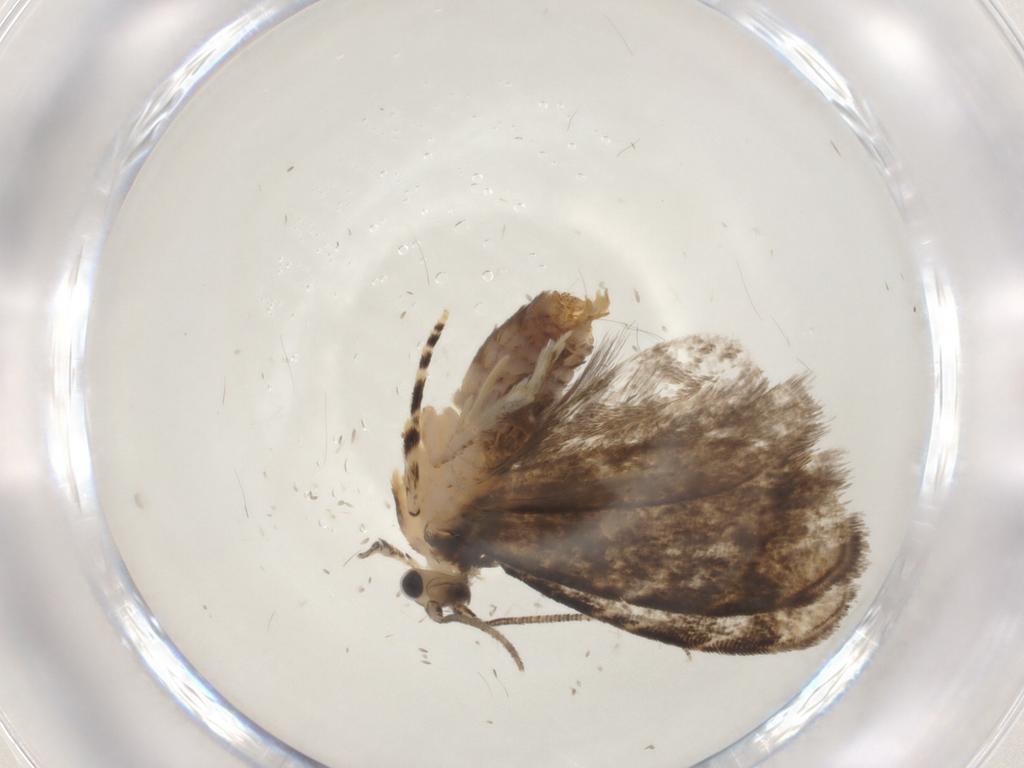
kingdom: Animalia
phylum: Arthropoda
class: Insecta
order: Lepidoptera
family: Tineidae
